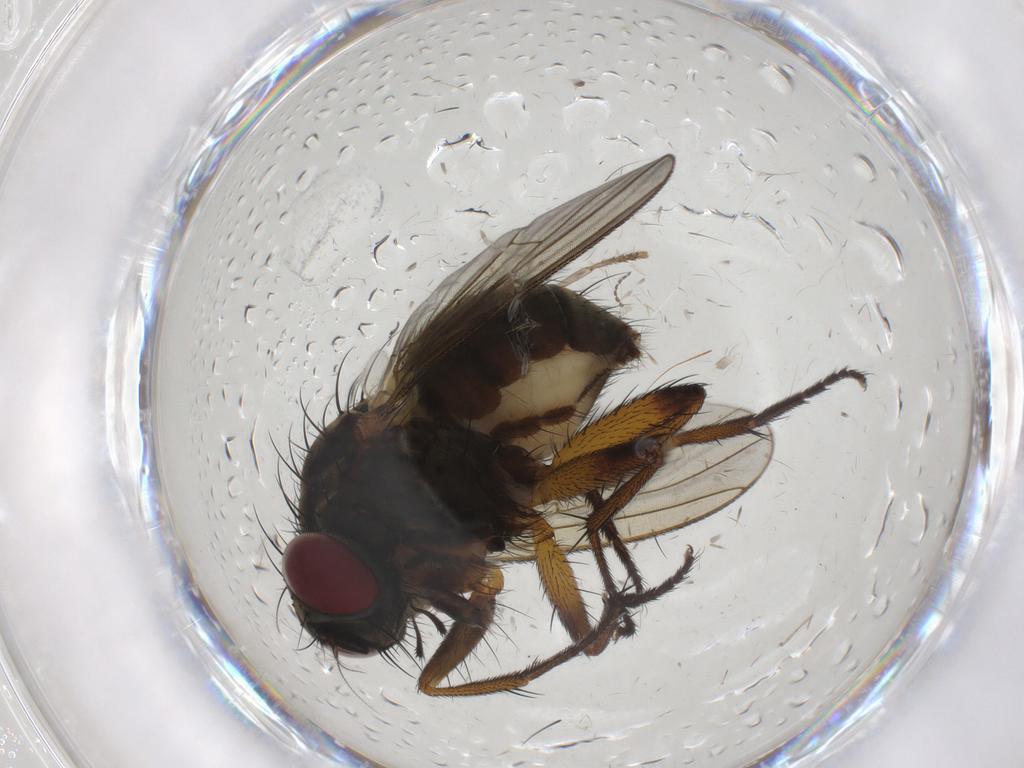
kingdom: Animalia
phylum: Arthropoda
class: Insecta
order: Diptera
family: Muscidae
